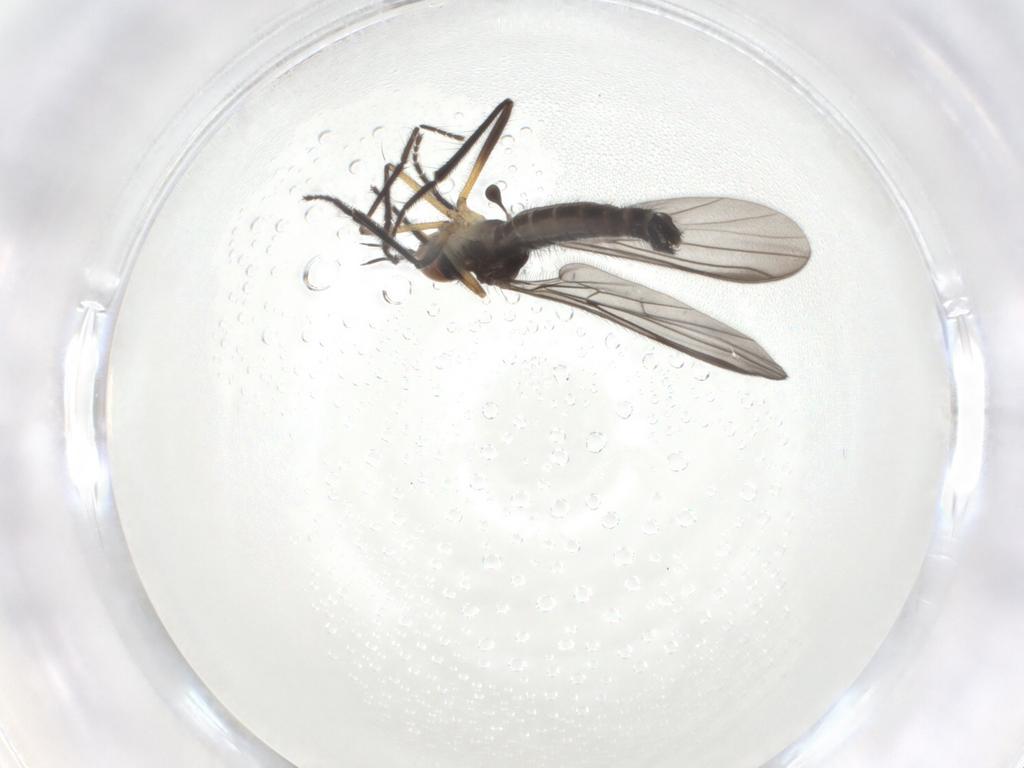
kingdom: Animalia
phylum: Arthropoda
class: Insecta
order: Diptera
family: Empididae
